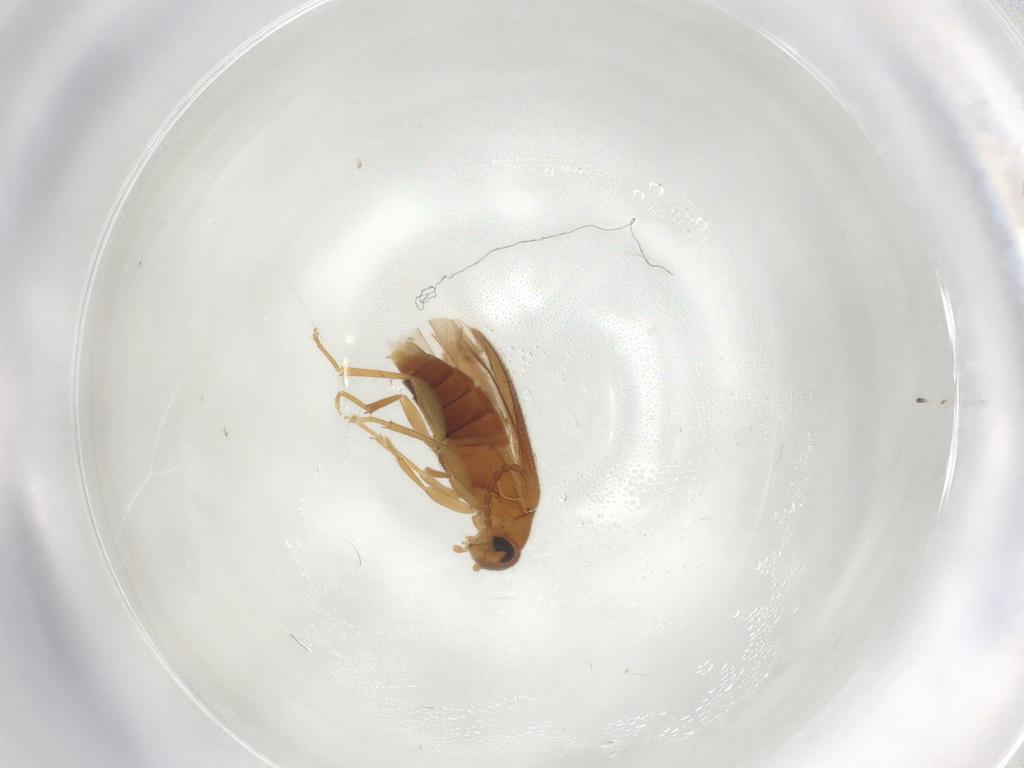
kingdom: Animalia
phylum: Arthropoda
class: Insecta
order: Coleoptera
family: Scraptiidae
